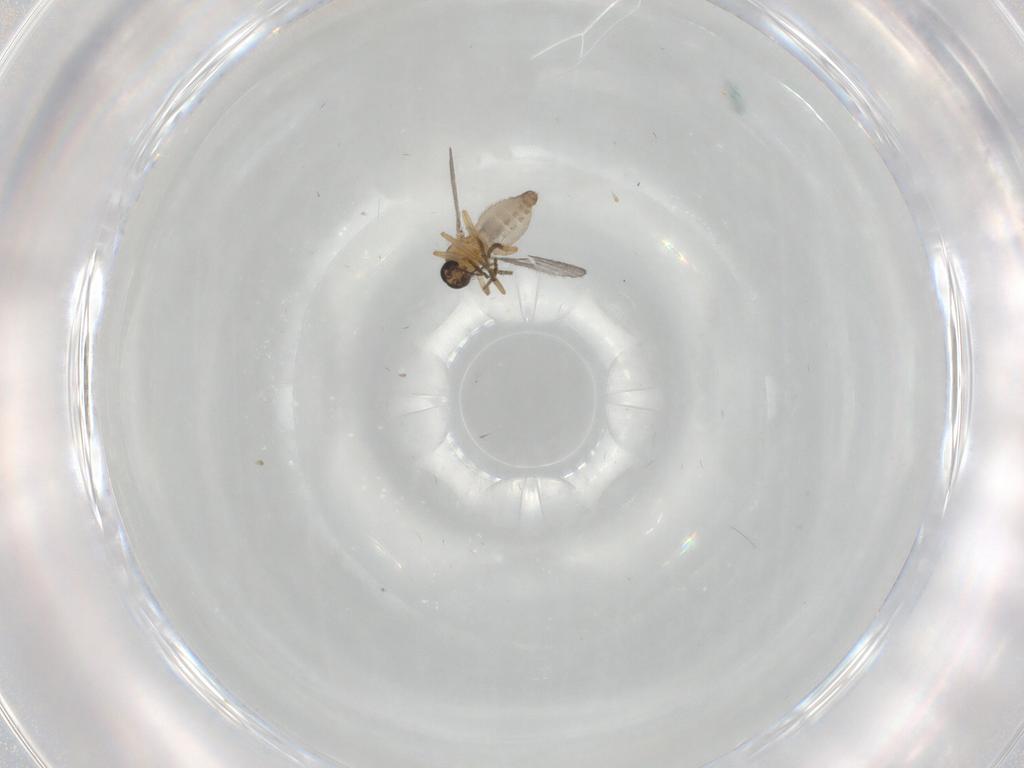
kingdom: Animalia
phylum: Arthropoda
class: Insecta
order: Diptera
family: Ceratopogonidae
